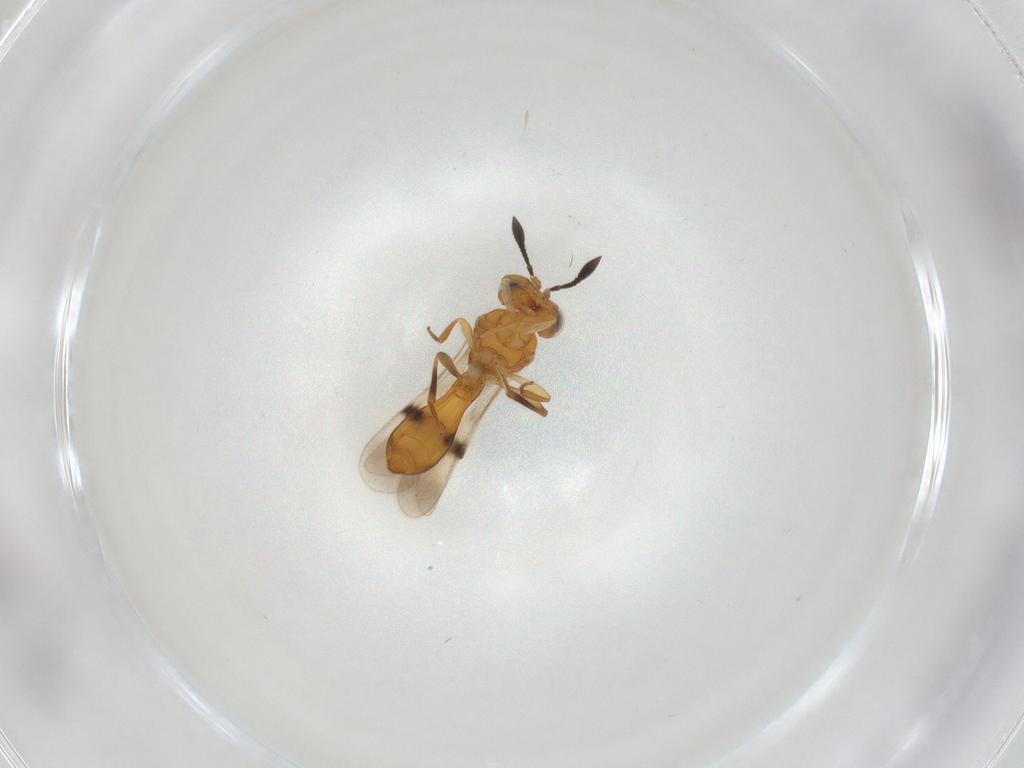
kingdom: Animalia
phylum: Arthropoda
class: Insecta
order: Hymenoptera
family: Scelionidae
